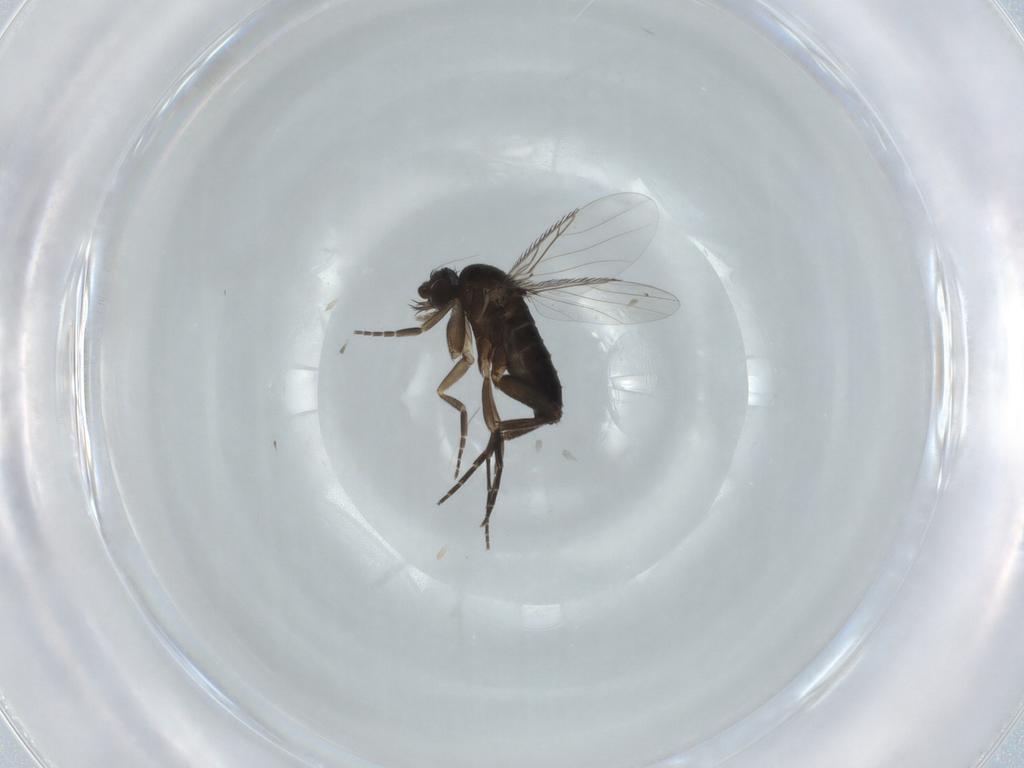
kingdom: Animalia
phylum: Arthropoda
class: Insecta
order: Diptera
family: Phoridae
